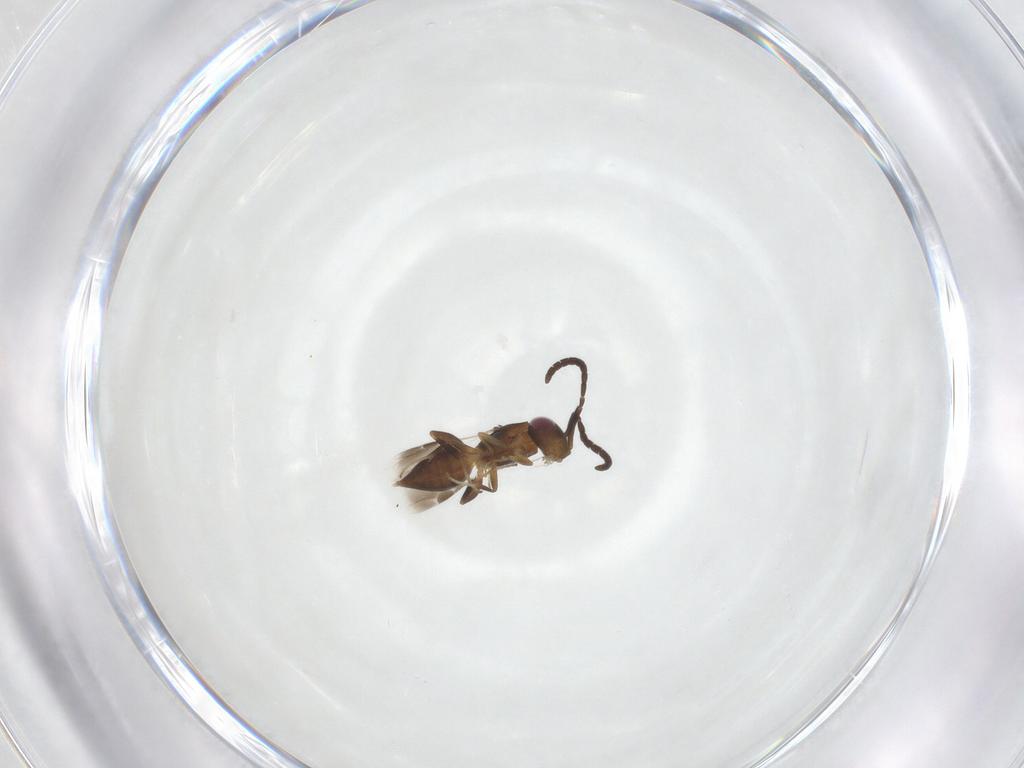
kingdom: Animalia
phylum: Arthropoda
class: Insecta
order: Hymenoptera
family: Megaspilidae
